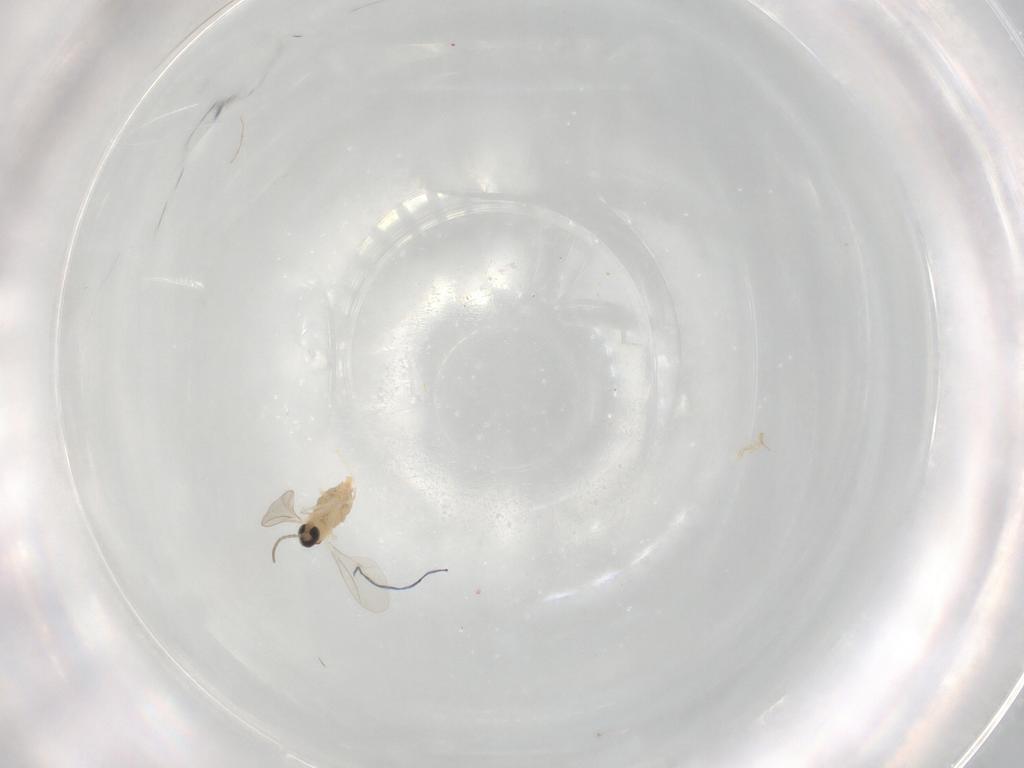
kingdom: Animalia
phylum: Arthropoda
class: Insecta
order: Diptera
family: Cecidomyiidae
